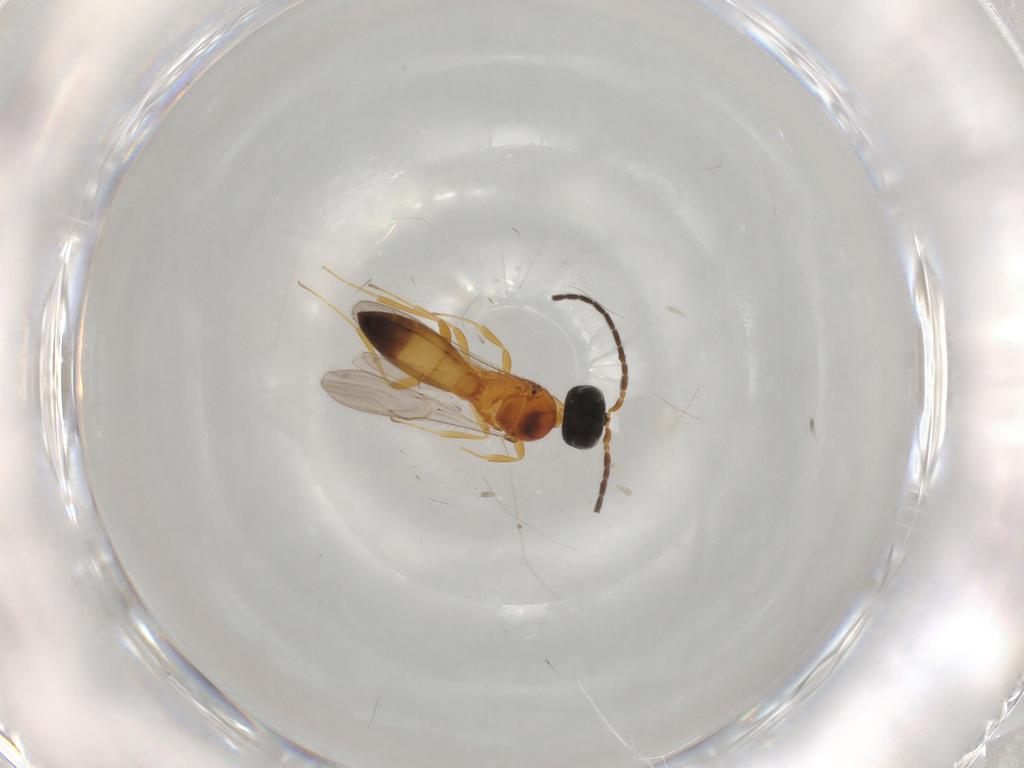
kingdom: Animalia
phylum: Arthropoda
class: Insecta
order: Hymenoptera
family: Scelionidae
